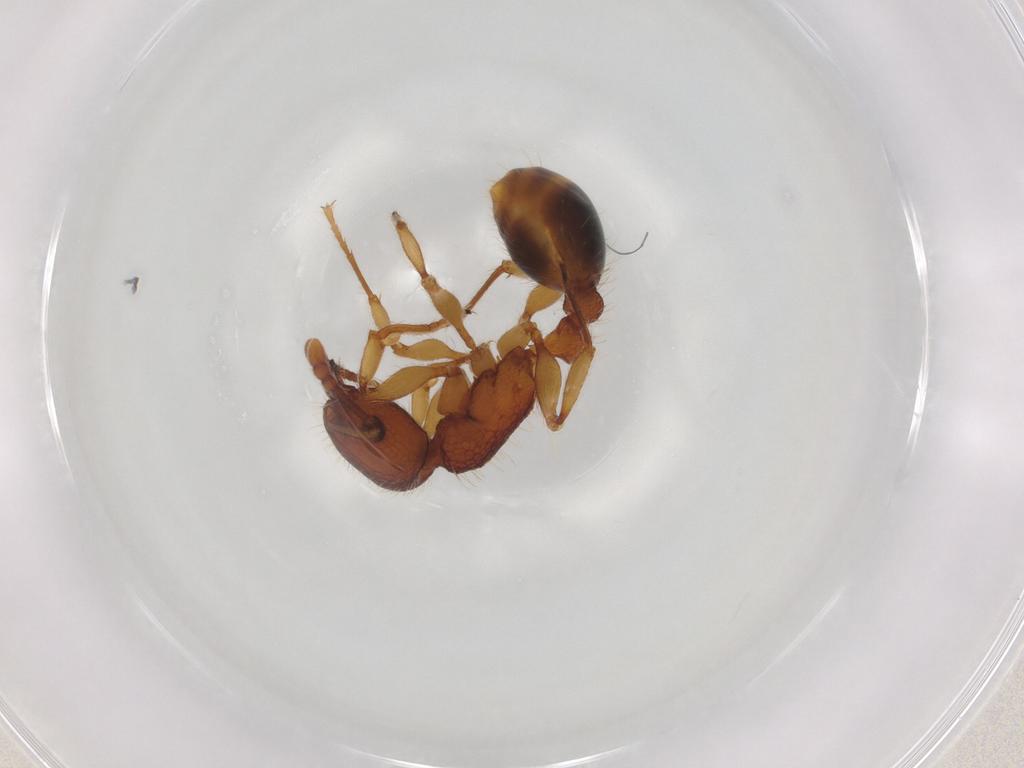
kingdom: Animalia
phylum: Arthropoda
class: Insecta
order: Hymenoptera
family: Formicidae
